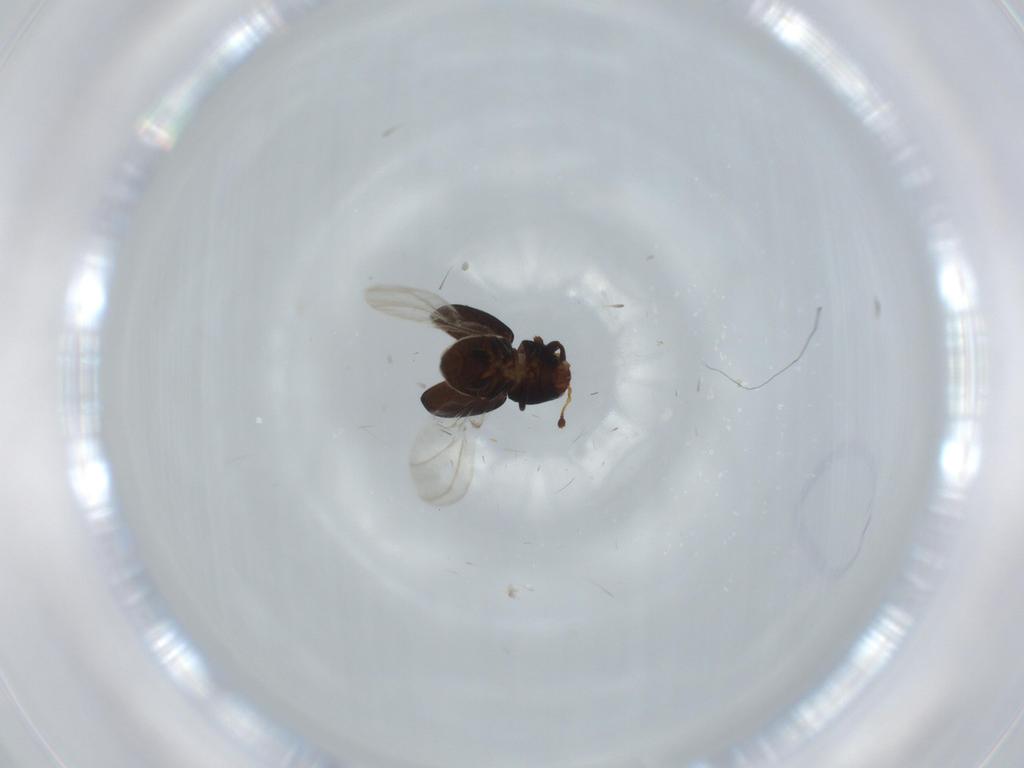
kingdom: Animalia
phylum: Arthropoda
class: Insecta
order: Coleoptera
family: Anthribidae
